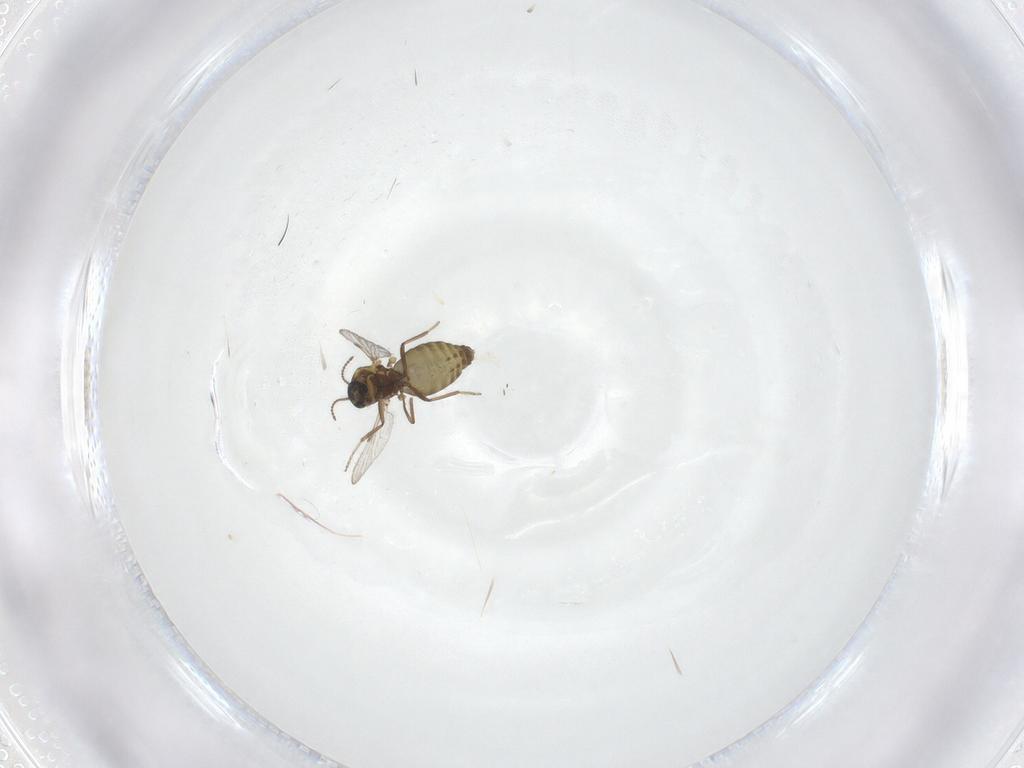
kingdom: Animalia
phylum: Arthropoda
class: Insecta
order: Diptera
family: Ceratopogonidae
